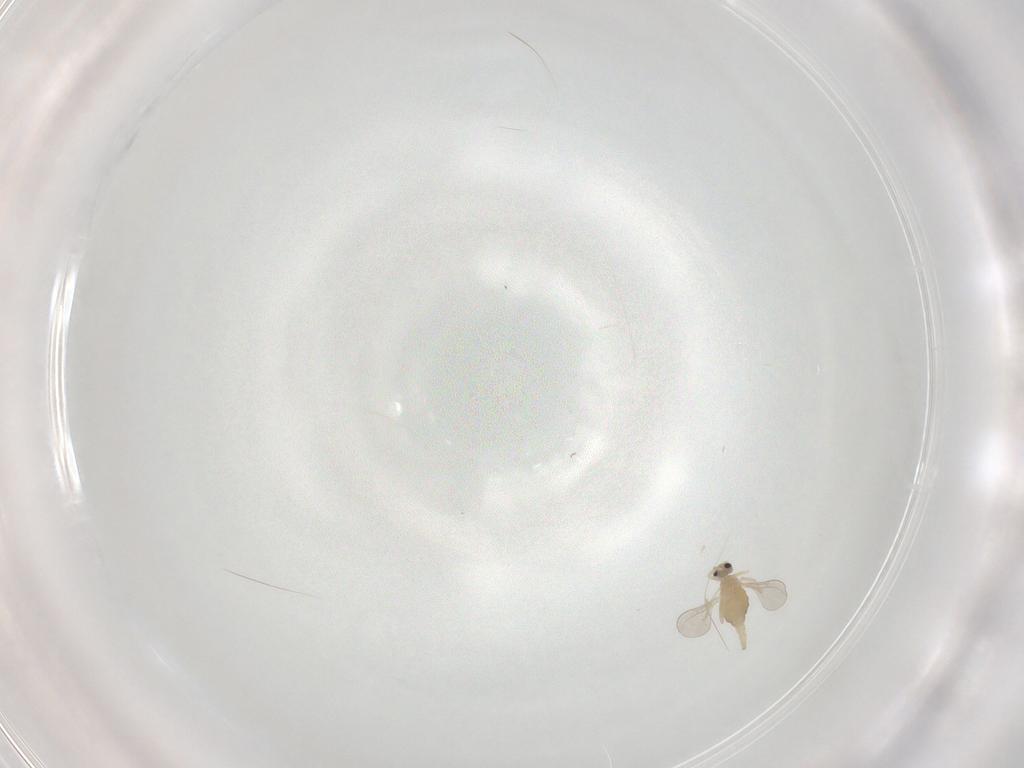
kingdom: Animalia
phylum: Arthropoda
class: Insecta
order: Diptera
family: Cecidomyiidae
